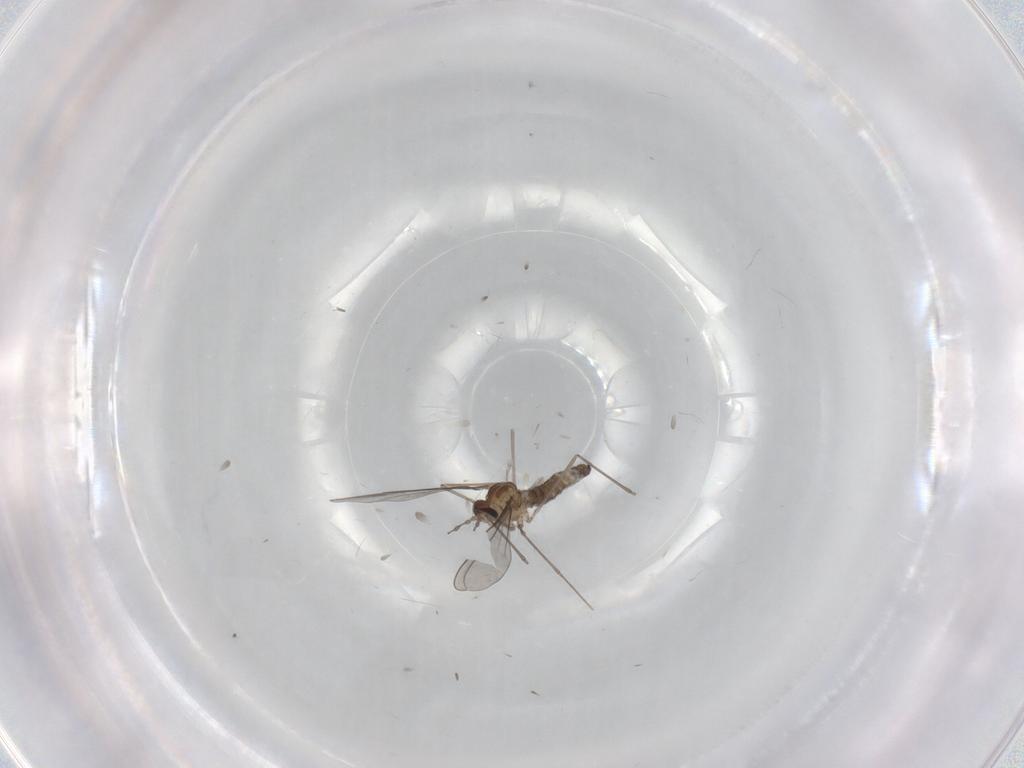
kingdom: Animalia
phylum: Arthropoda
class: Insecta
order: Diptera
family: Cecidomyiidae
